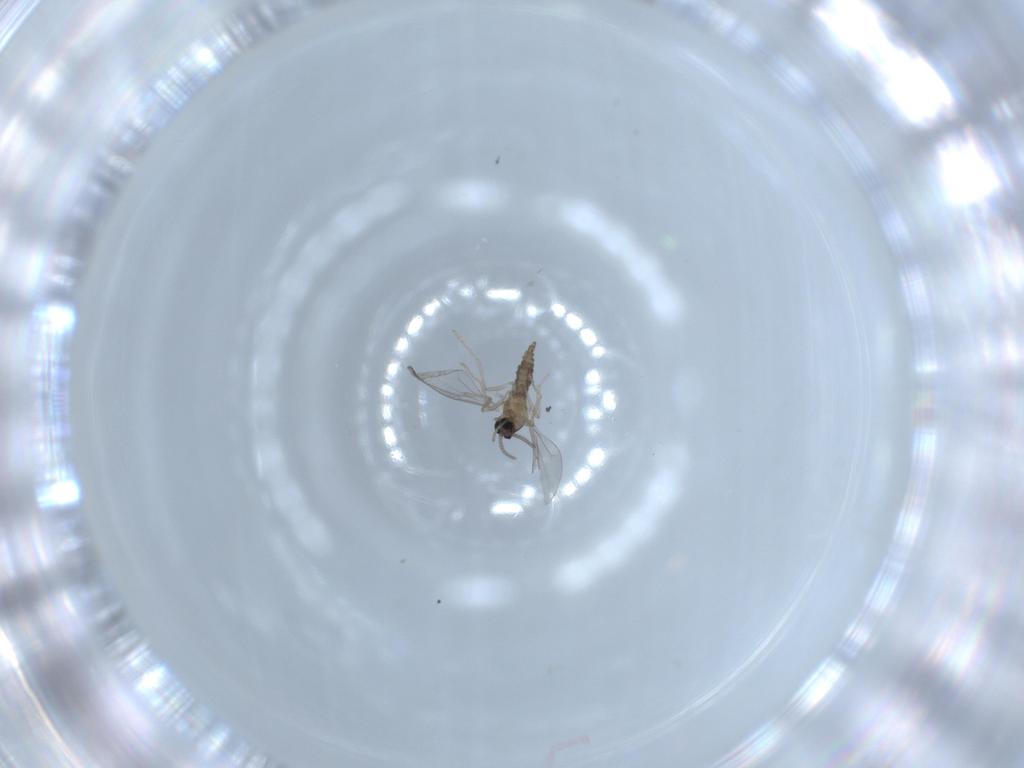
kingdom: Animalia
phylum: Arthropoda
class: Insecta
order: Diptera
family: Cecidomyiidae
